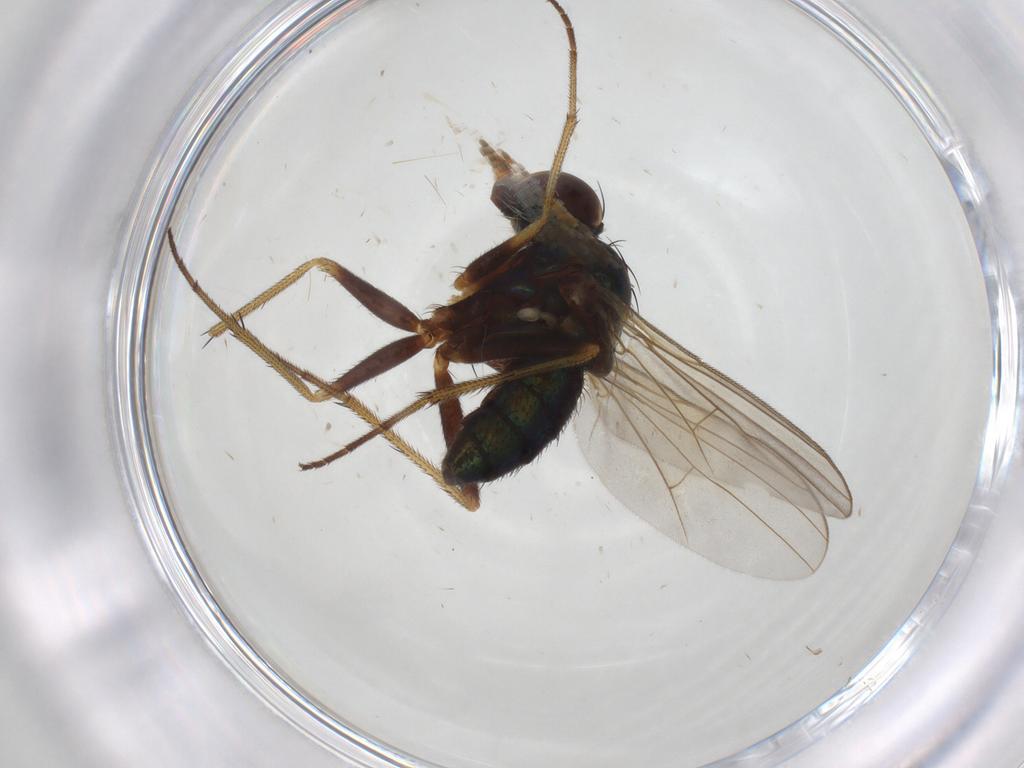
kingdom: Animalia
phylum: Arthropoda
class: Insecta
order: Diptera
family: Dolichopodidae
